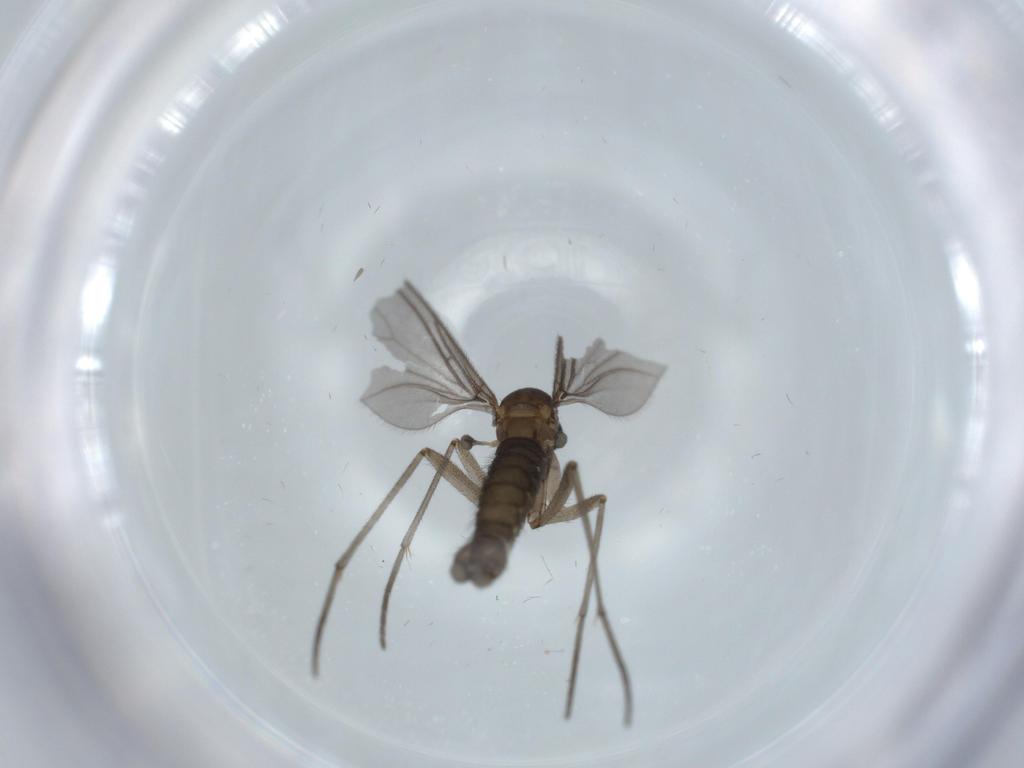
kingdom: Animalia
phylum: Arthropoda
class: Insecta
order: Diptera
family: Sciaridae
